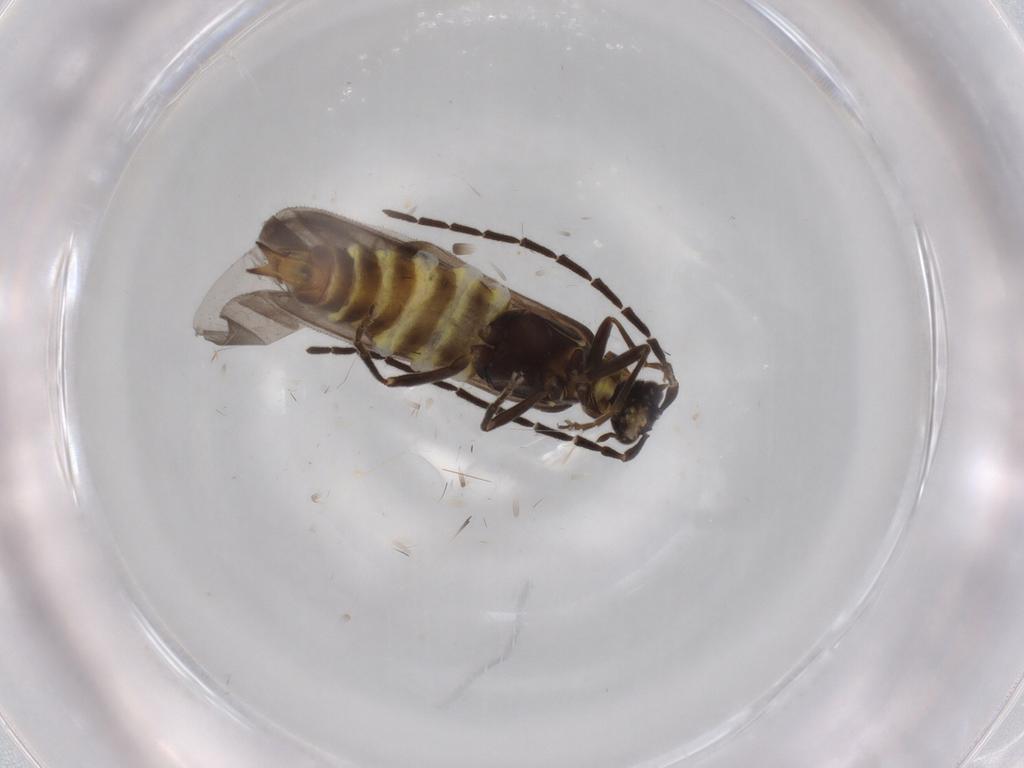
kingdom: Animalia
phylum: Arthropoda
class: Insecta
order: Coleoptera
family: Cantharidae
